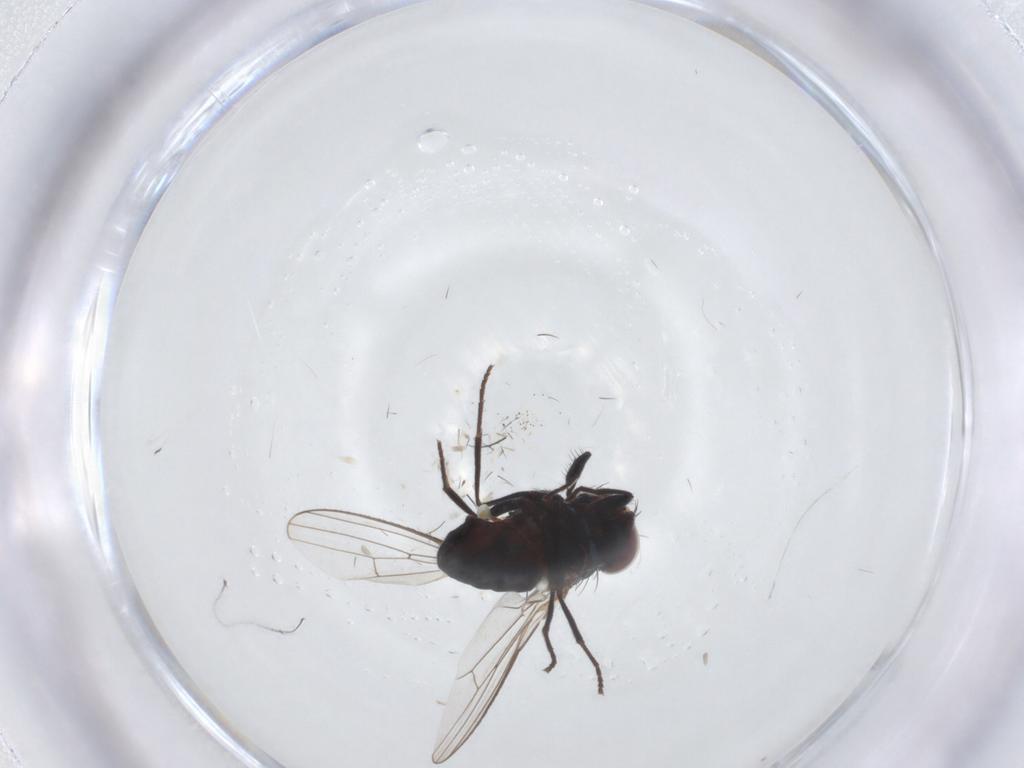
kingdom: Animalia
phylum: Arthropoda
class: Insecta
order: Diptera
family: Carnidae
